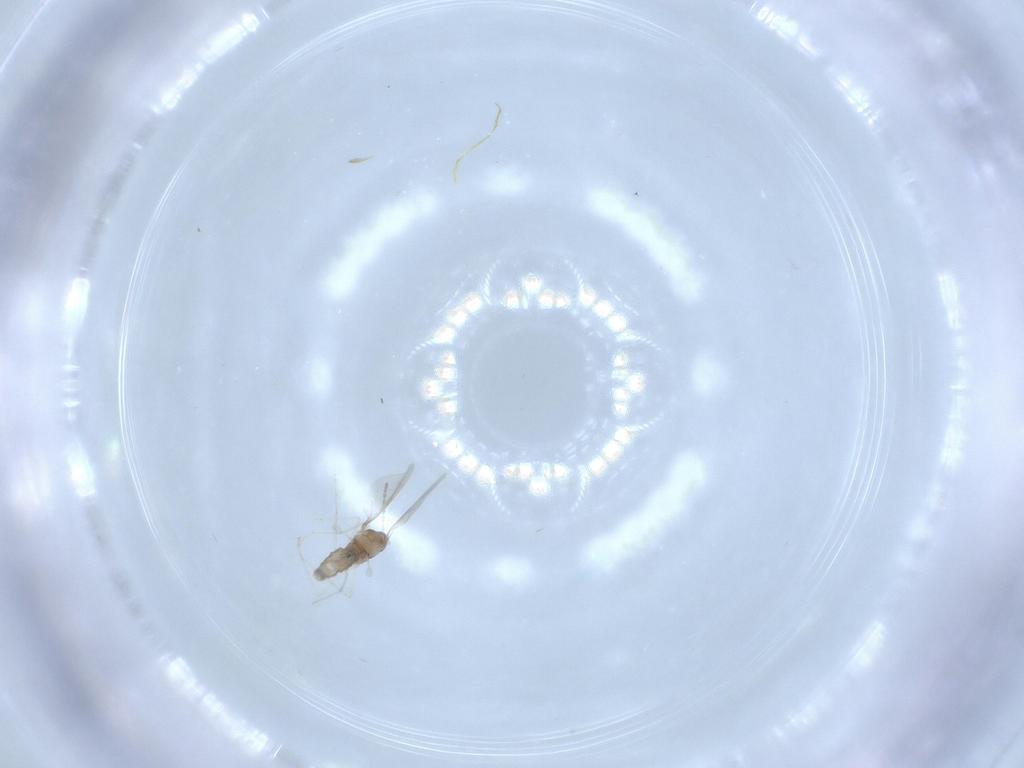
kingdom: Animalia
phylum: Arthropoda
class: Insecta
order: Diptera
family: Cecidomyiidae
